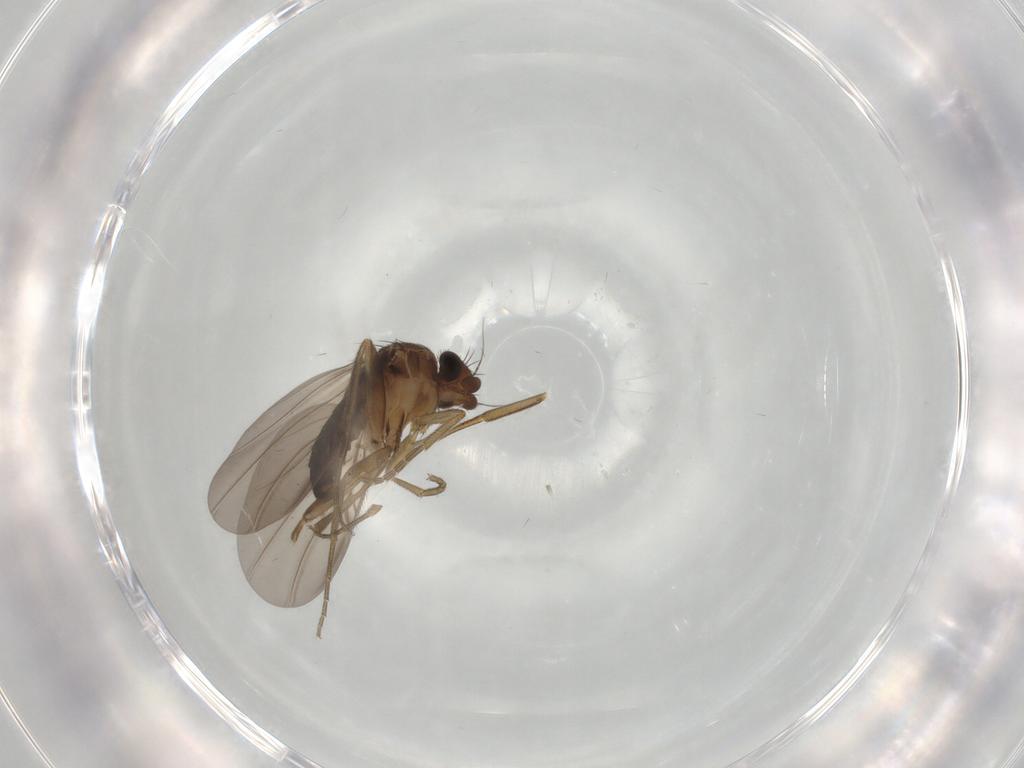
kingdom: Animalia
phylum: Arthropoda
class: Insecta
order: Diptera
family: Phoridae
